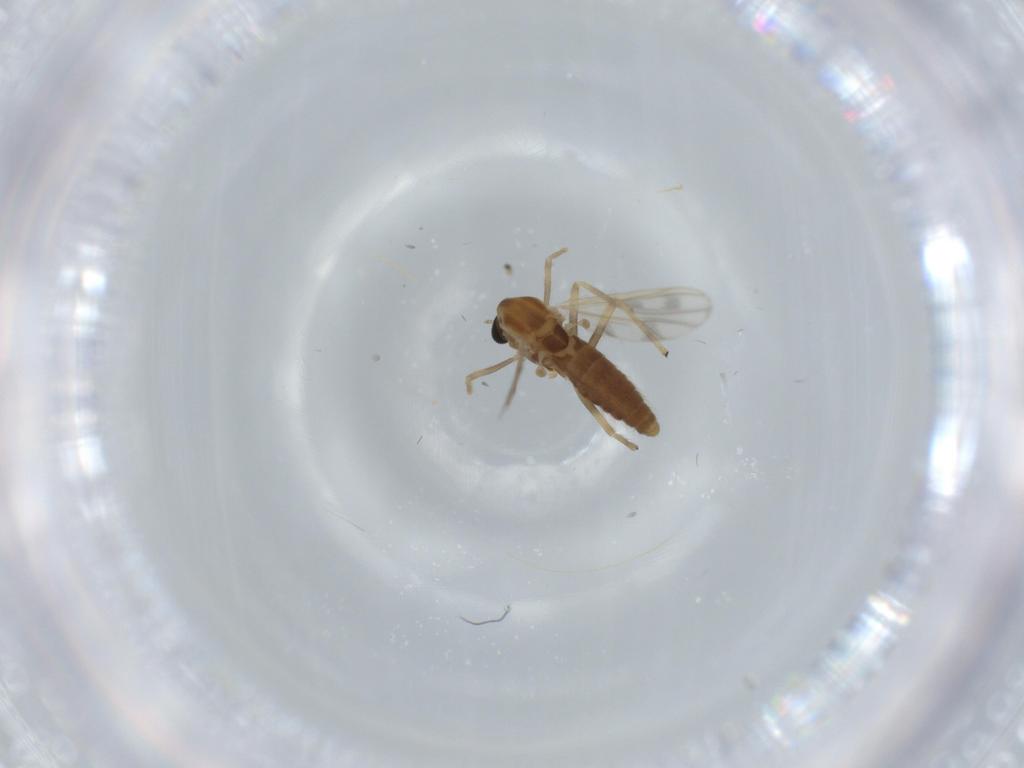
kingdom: Animalia
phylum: Arthropoda
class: Insecta
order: Diptera
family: Chironomidae
